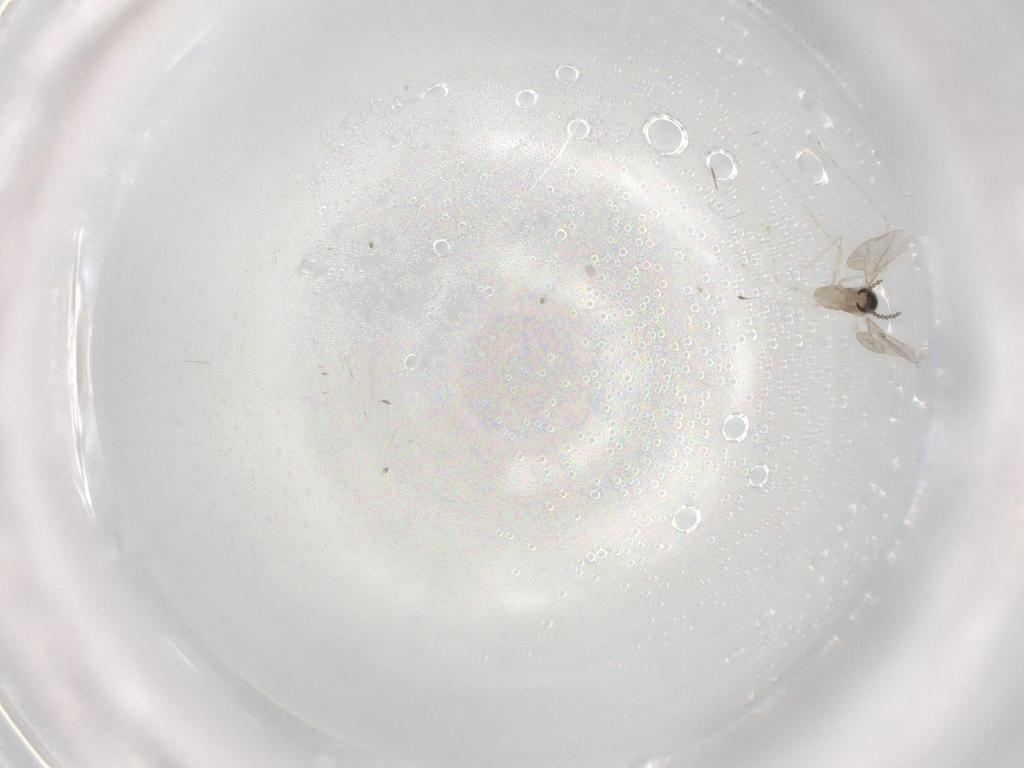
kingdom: Animalia
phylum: Arthropoda
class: Insecta
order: Diptera
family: Cecidomyiidae
